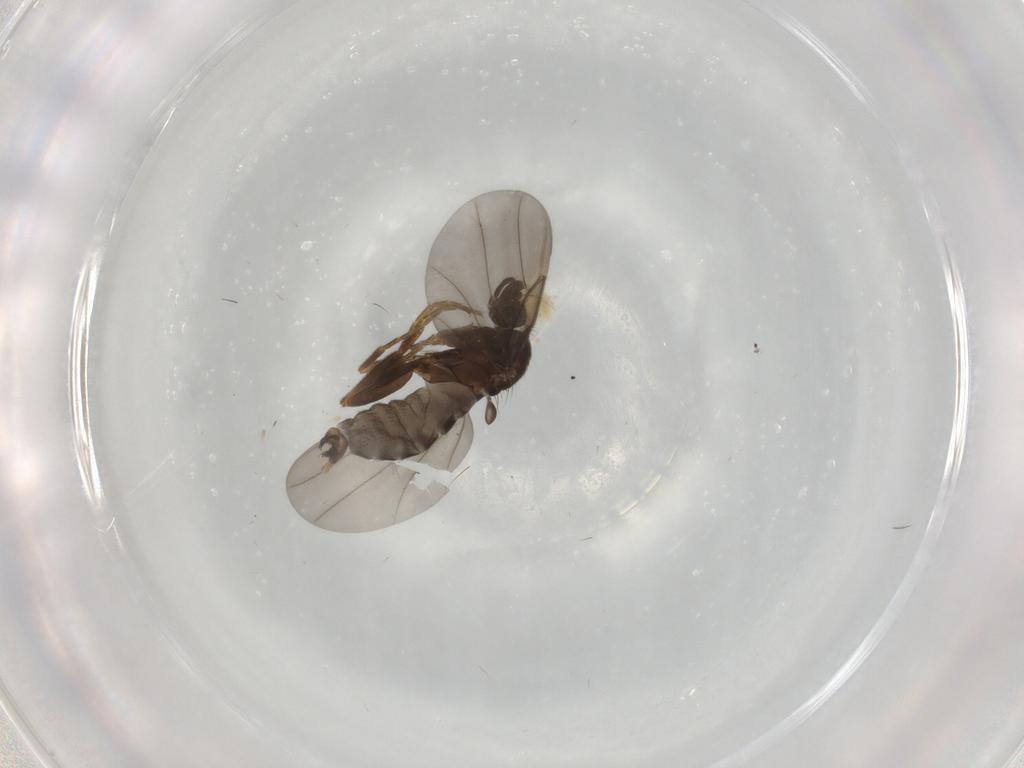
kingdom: Animalia
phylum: Arthropoda
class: Insecta
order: Diptera
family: Phoridae
